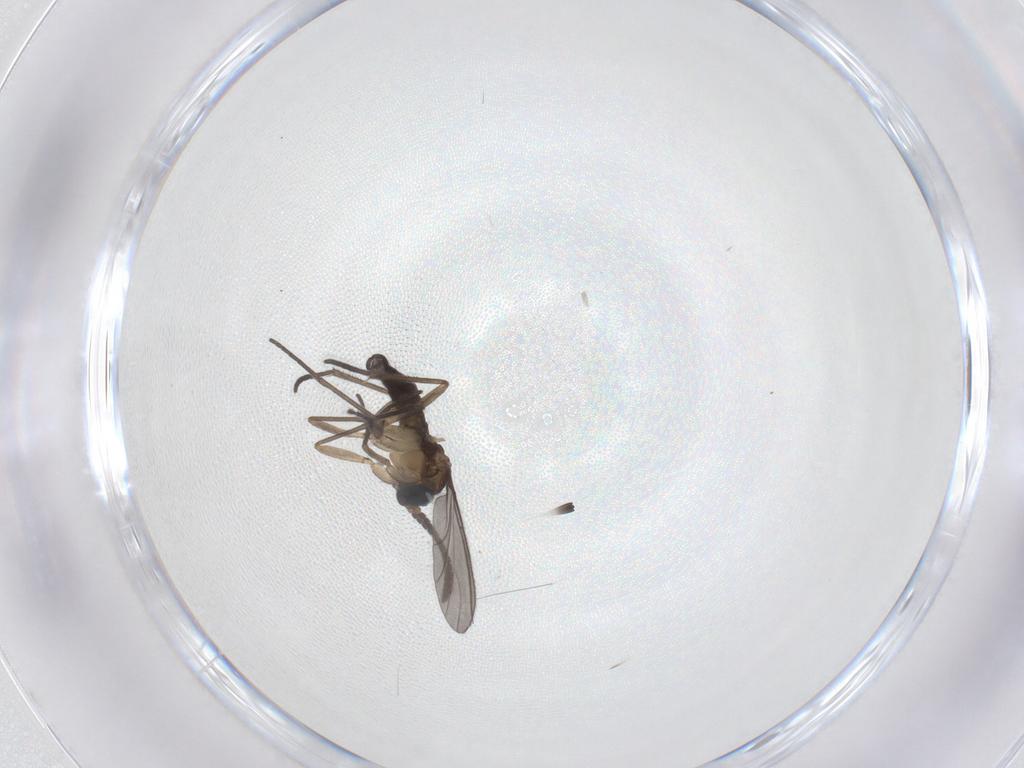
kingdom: Animalia
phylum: Arthropoda
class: Insecta
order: Diptera
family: Sciaridae
